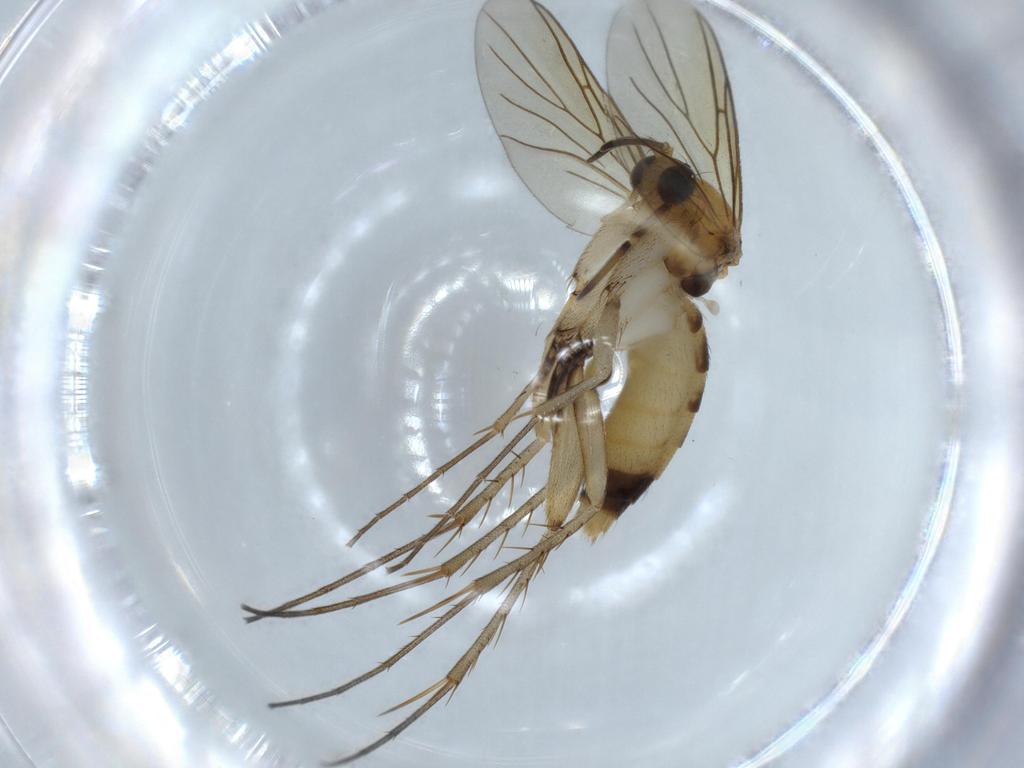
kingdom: Animalia
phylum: Arthropoda
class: Insecta
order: Diptera
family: Mycetophilidae
